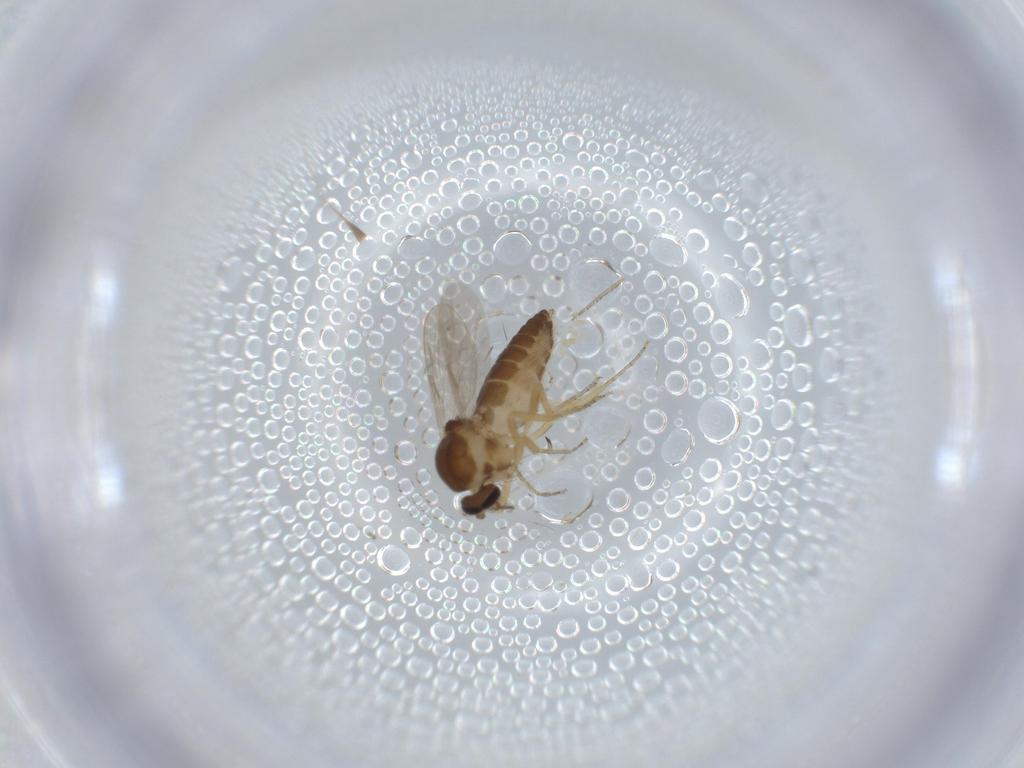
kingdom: Animalia
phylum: Arthropoda
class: Insecta
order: Diptera
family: Ceratopogonidae
